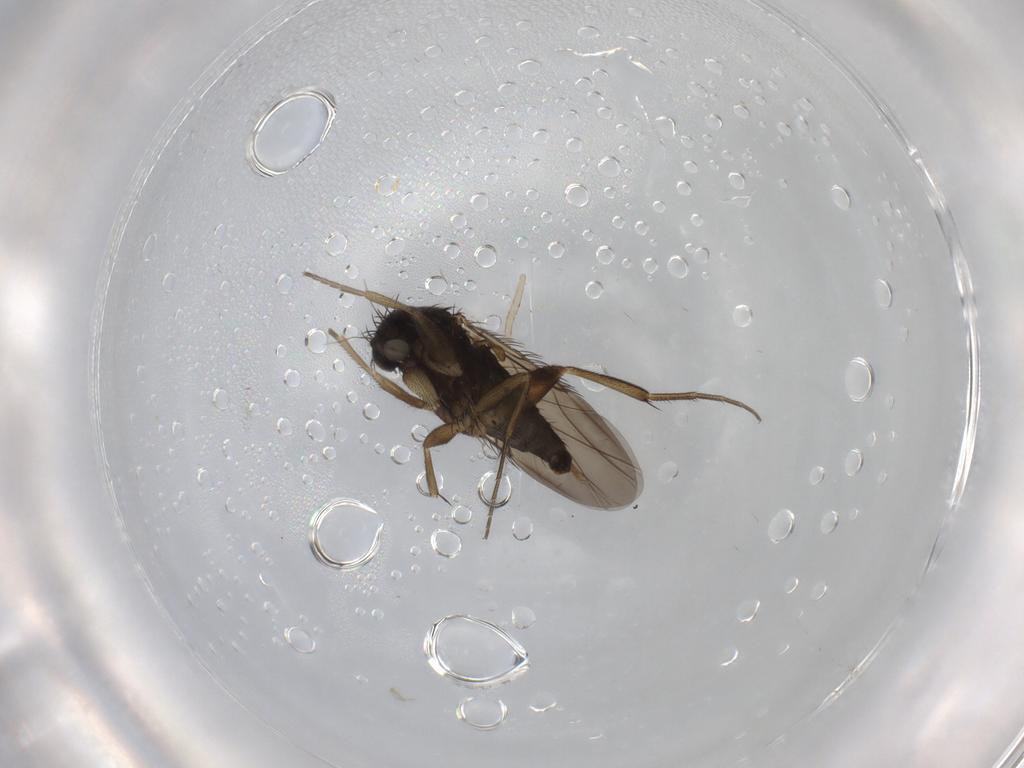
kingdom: Animalia
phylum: Arthropoda
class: Insecta
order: Diptera
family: Phoridae
